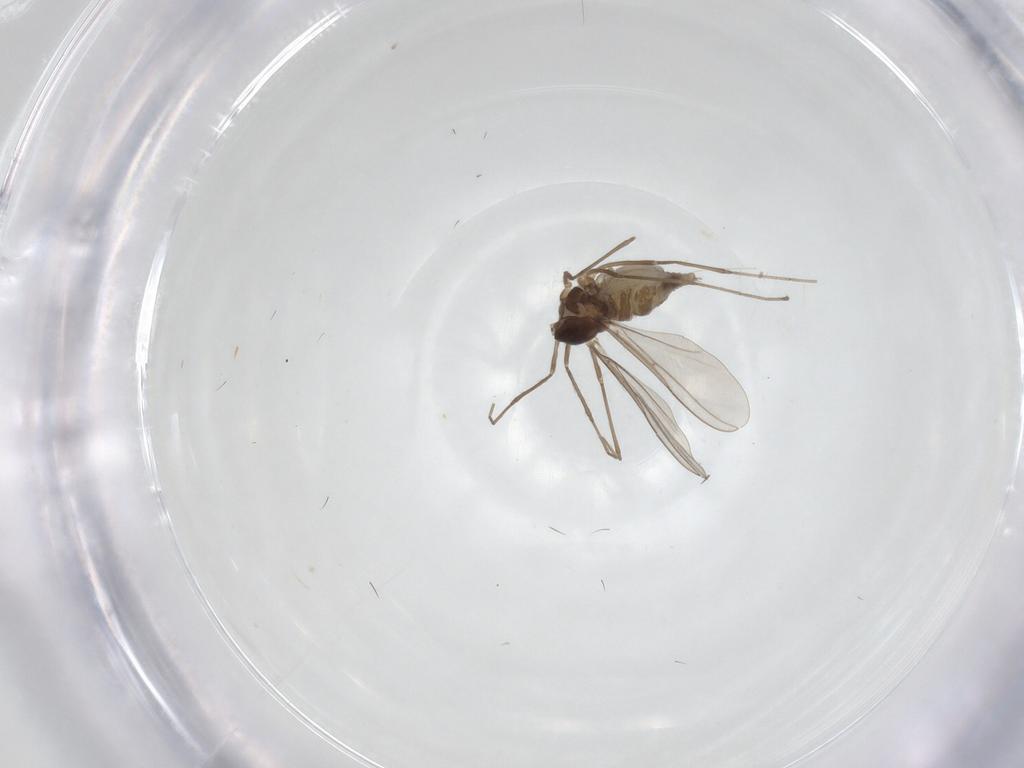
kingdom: Animalia
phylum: Arthropoda
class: Insecta
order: Diptera
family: Cecidomyiidae
